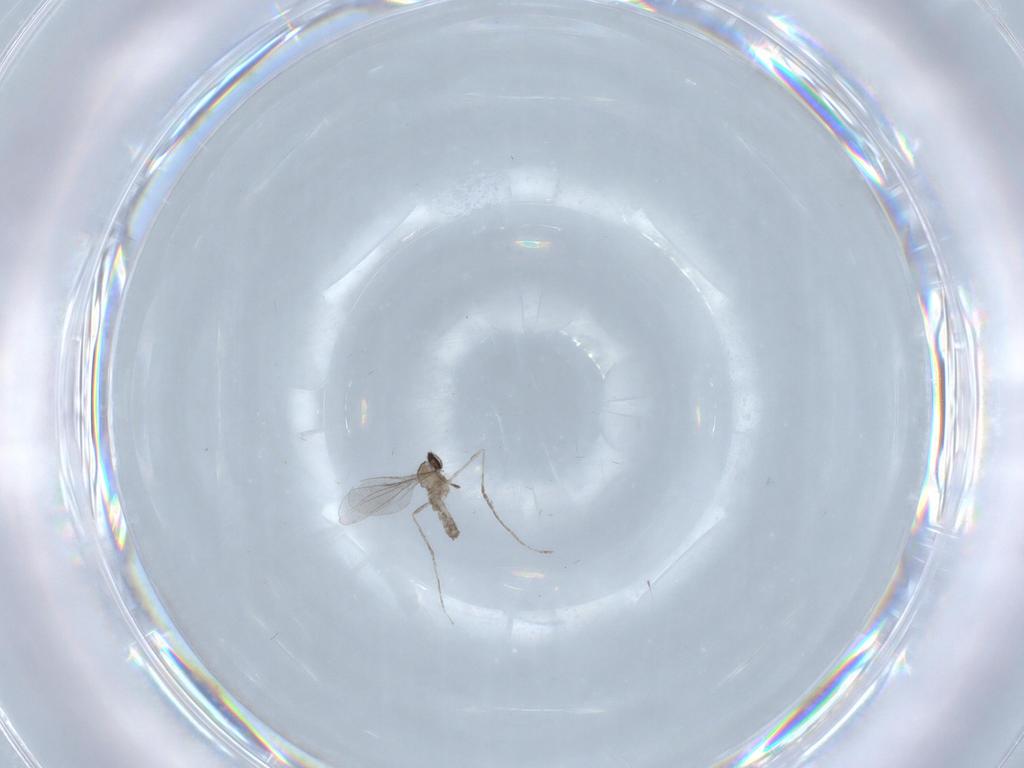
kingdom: Animalia
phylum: Arthropoda
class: Insecta
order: Diptera
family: Cecidomyiidae
